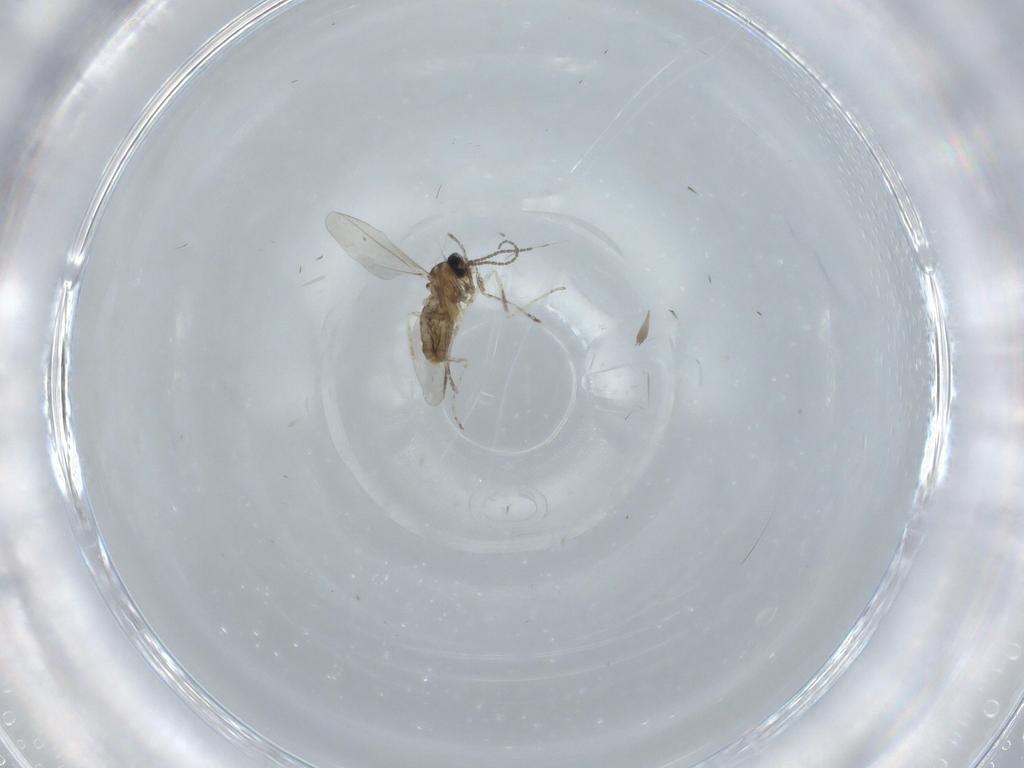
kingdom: Animalia
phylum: Arthropoda
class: Insecta
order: Diptera
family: Cecidomyiidae
